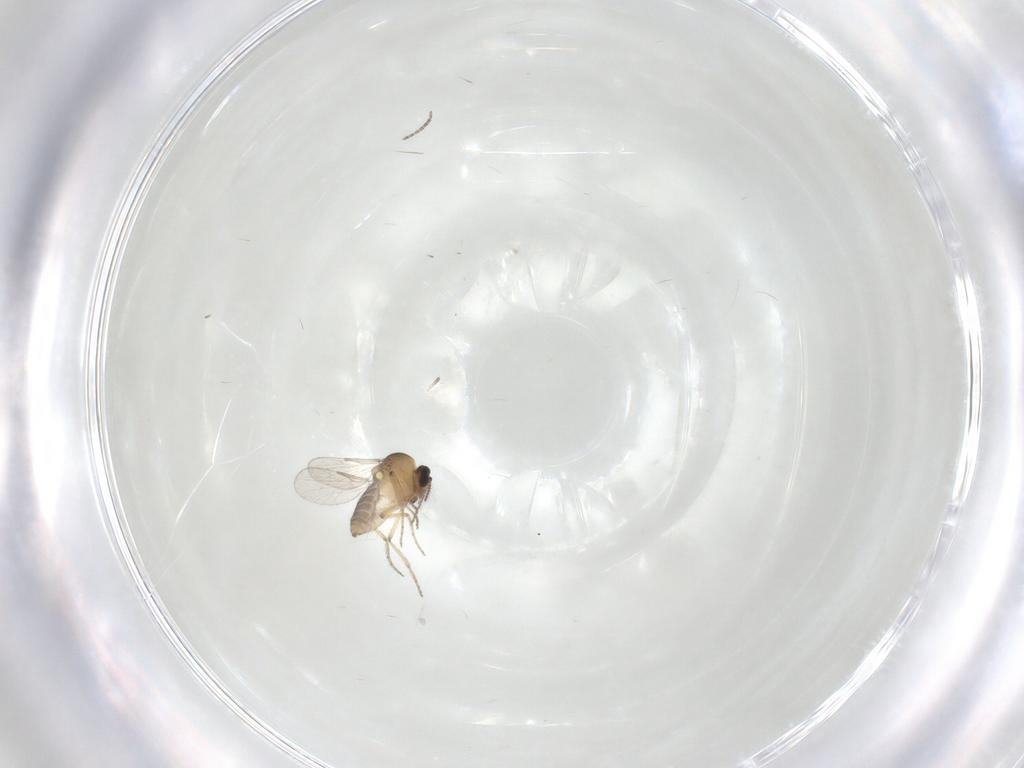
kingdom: Animalia
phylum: Arthropoda
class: Insecta
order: Diptera
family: Ceratopogonidae
